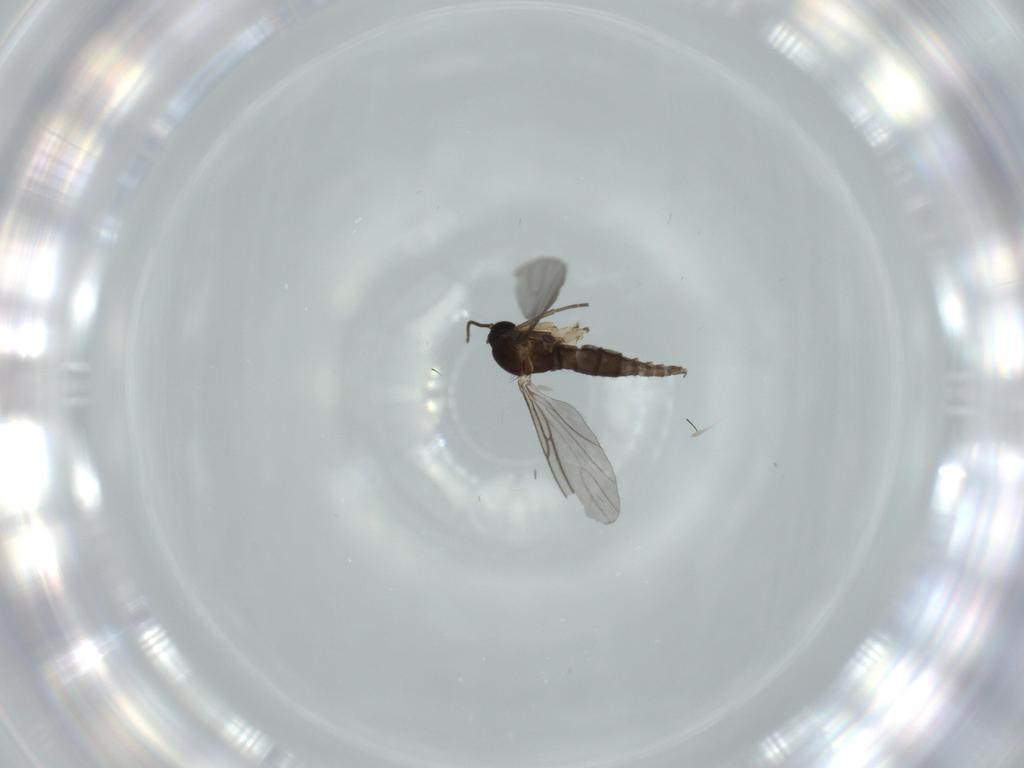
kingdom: Animalia
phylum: Arthropoda
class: Insecta
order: Diptera
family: Sciaridae
